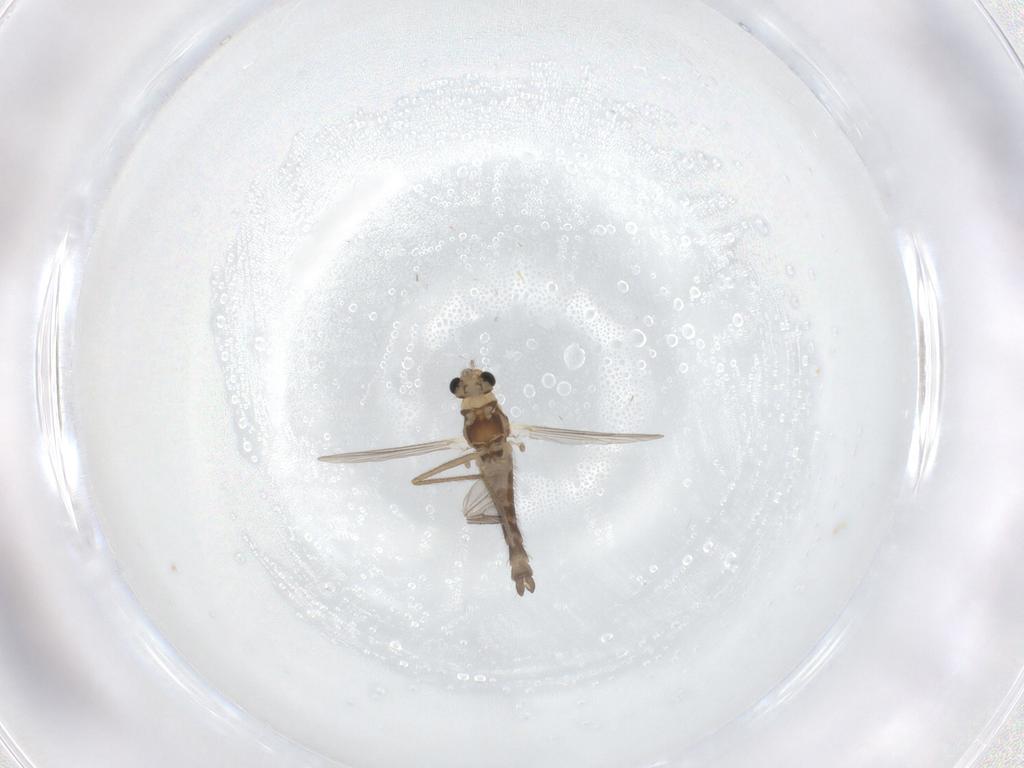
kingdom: Animalia
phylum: Arthropoda
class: Insecta
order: Diptera
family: Chironomidae
